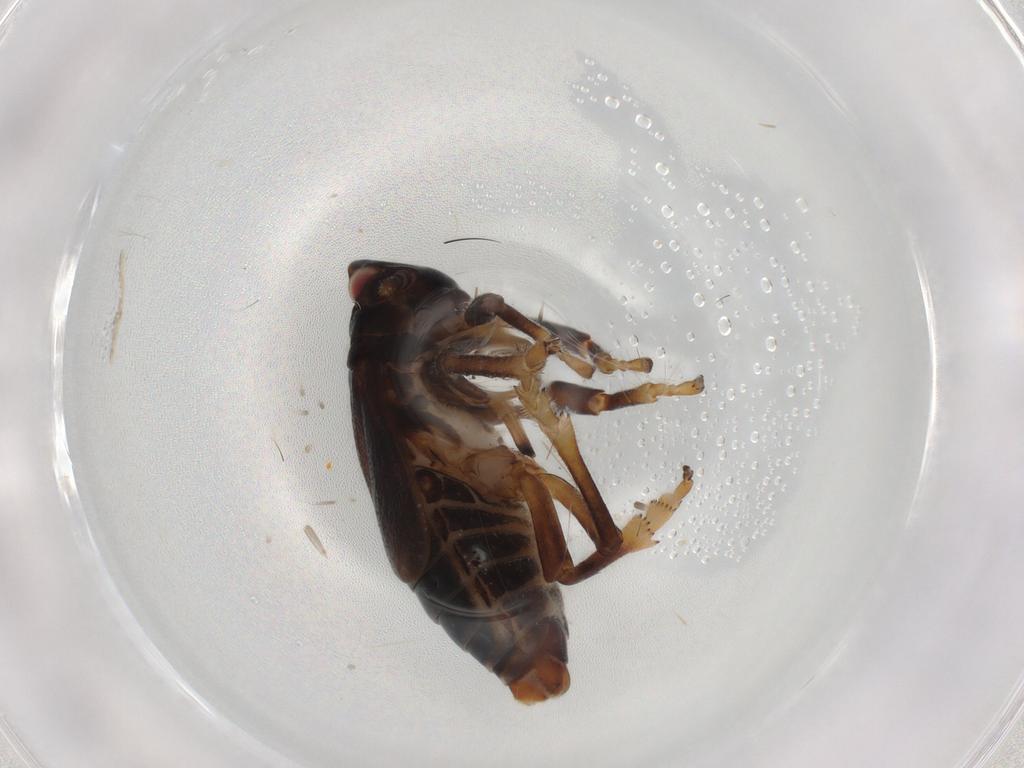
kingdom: Animalia
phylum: Arthropoda
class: Insecta
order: Hemiptera
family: Tettigometridae
